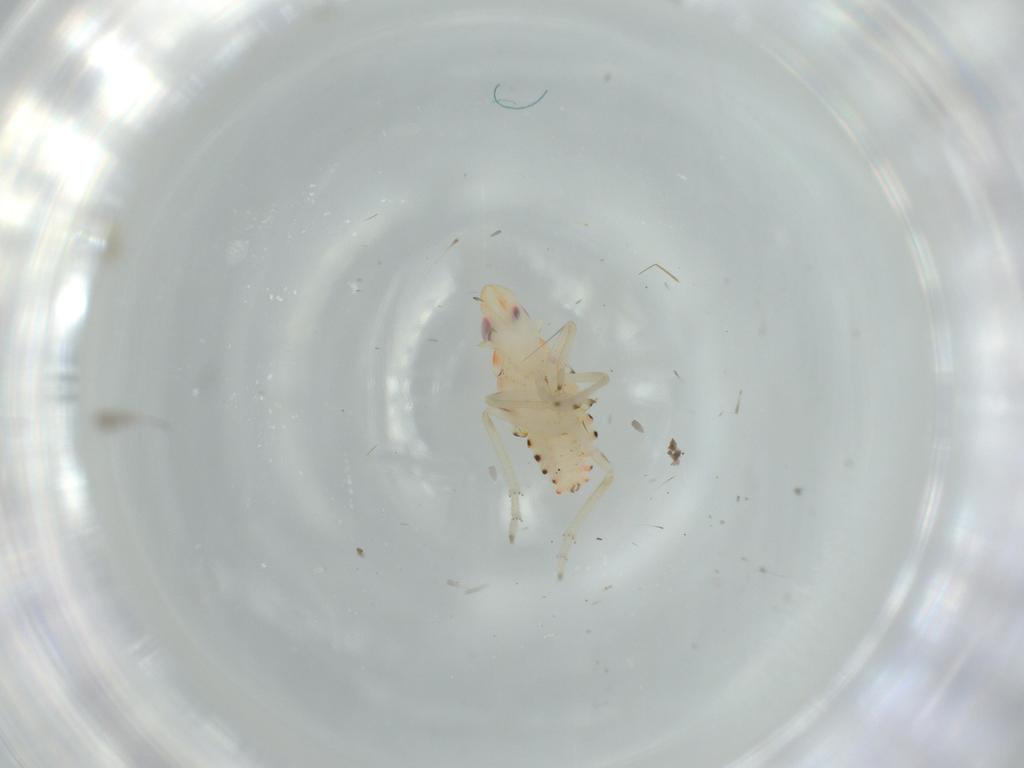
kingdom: Animalia
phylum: Arthropoda
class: Insecta
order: Hemiptera
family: Tropiduchidae
